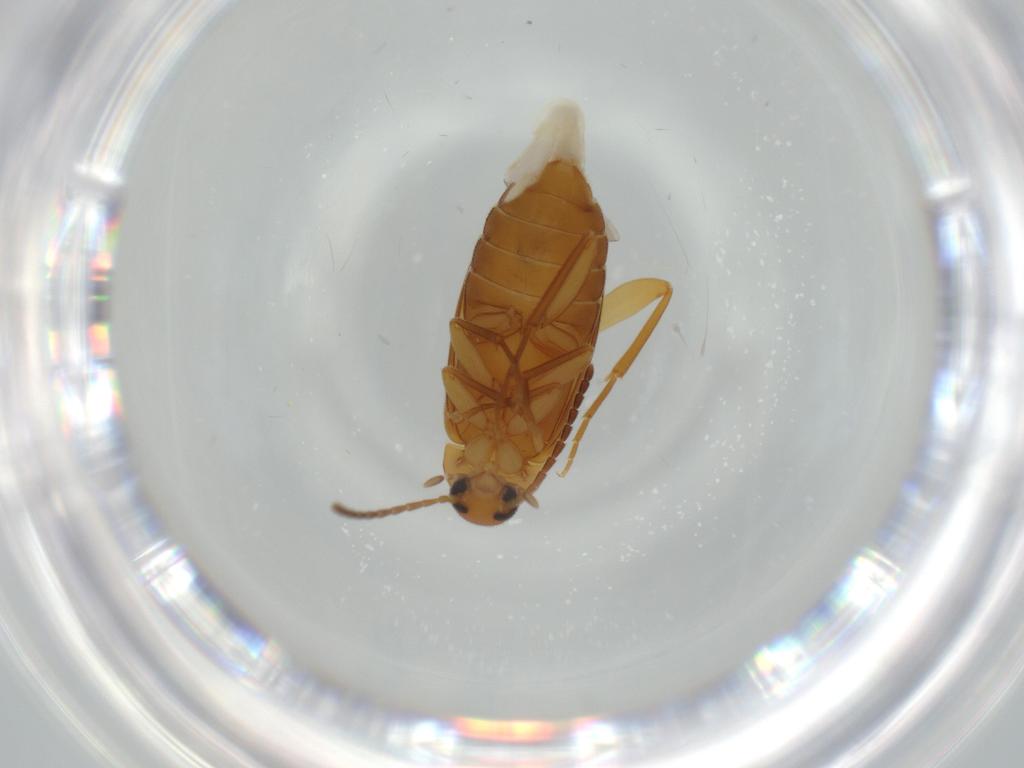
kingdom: Animalia
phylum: Arthropoda
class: Insecta
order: Coleoptera
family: Scraptiidae
